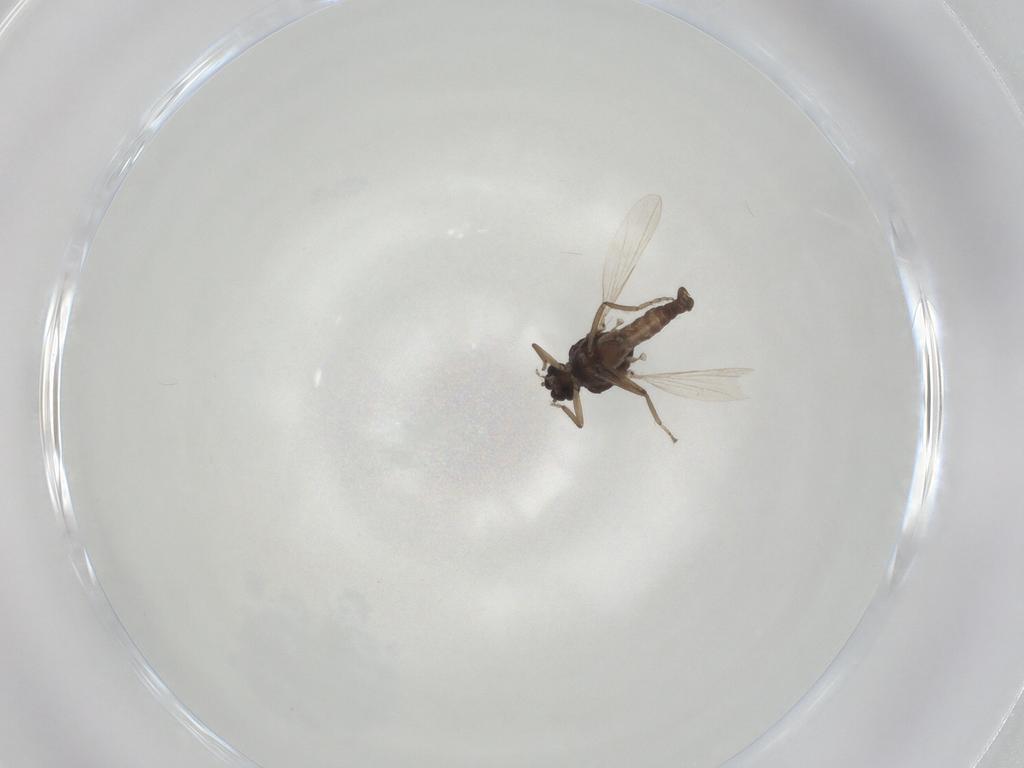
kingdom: Animalia
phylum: Arthropoda
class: Insecta
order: Diptera
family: Ceratopogonidae
